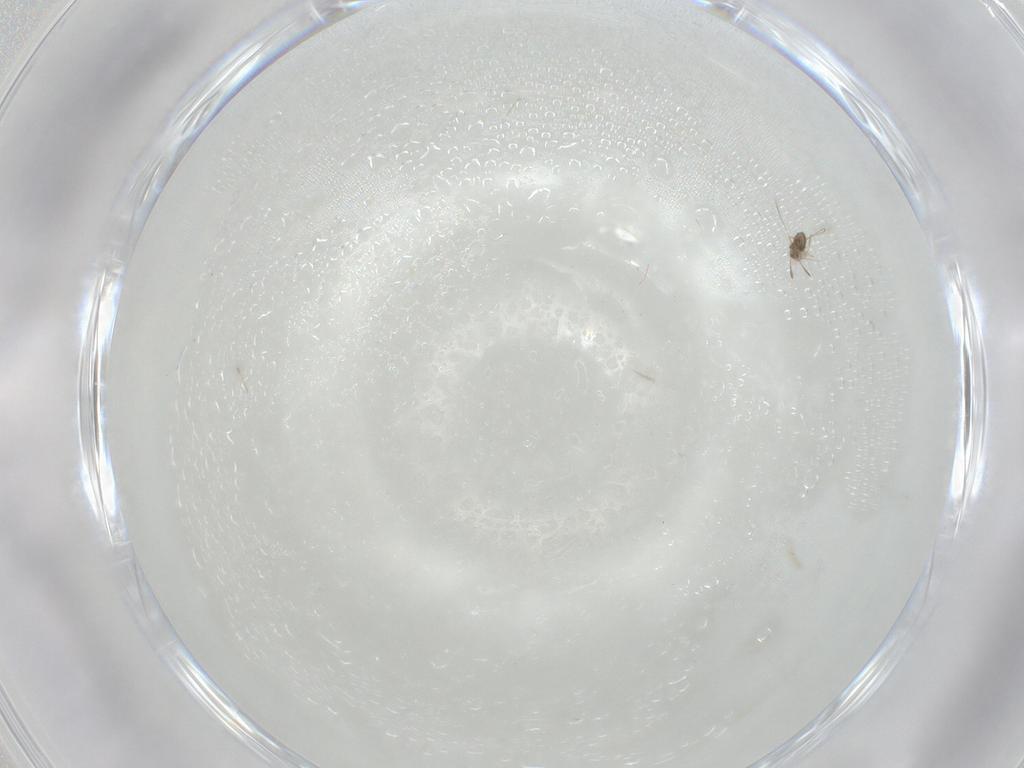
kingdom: Animalia
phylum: Arthropoda
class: Insecta
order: Hymenoptera
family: Trichogrammatidae
